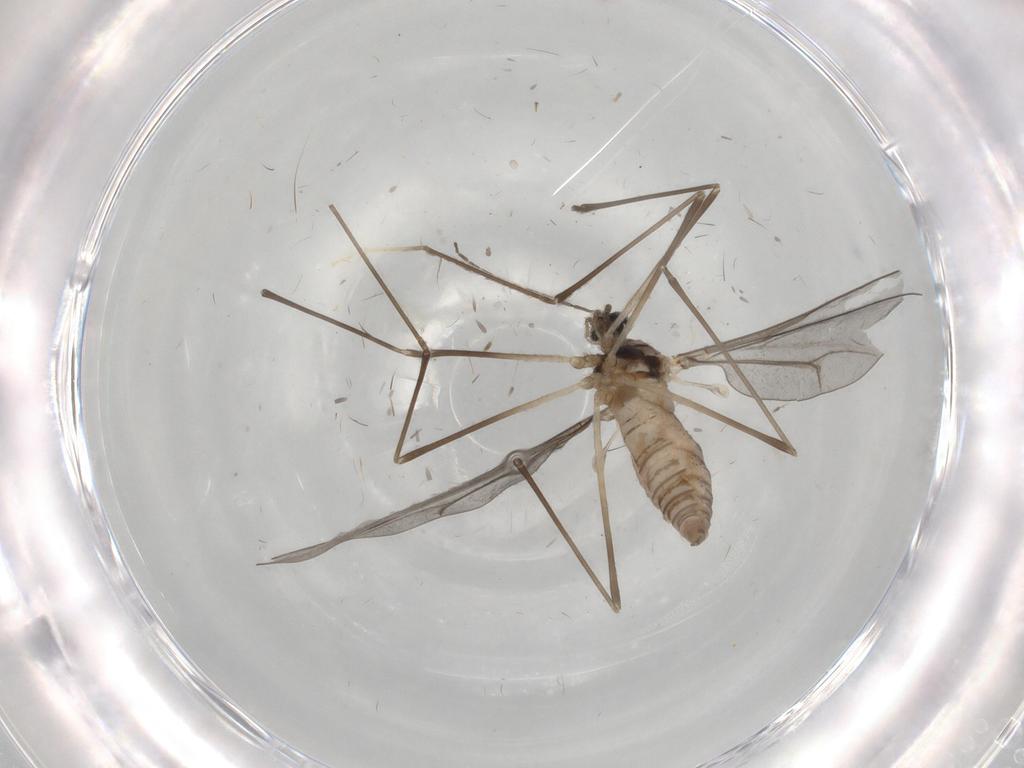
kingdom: Animalia
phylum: Arthropoda
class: Insecta
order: Diptera
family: Cecidomyiidae
